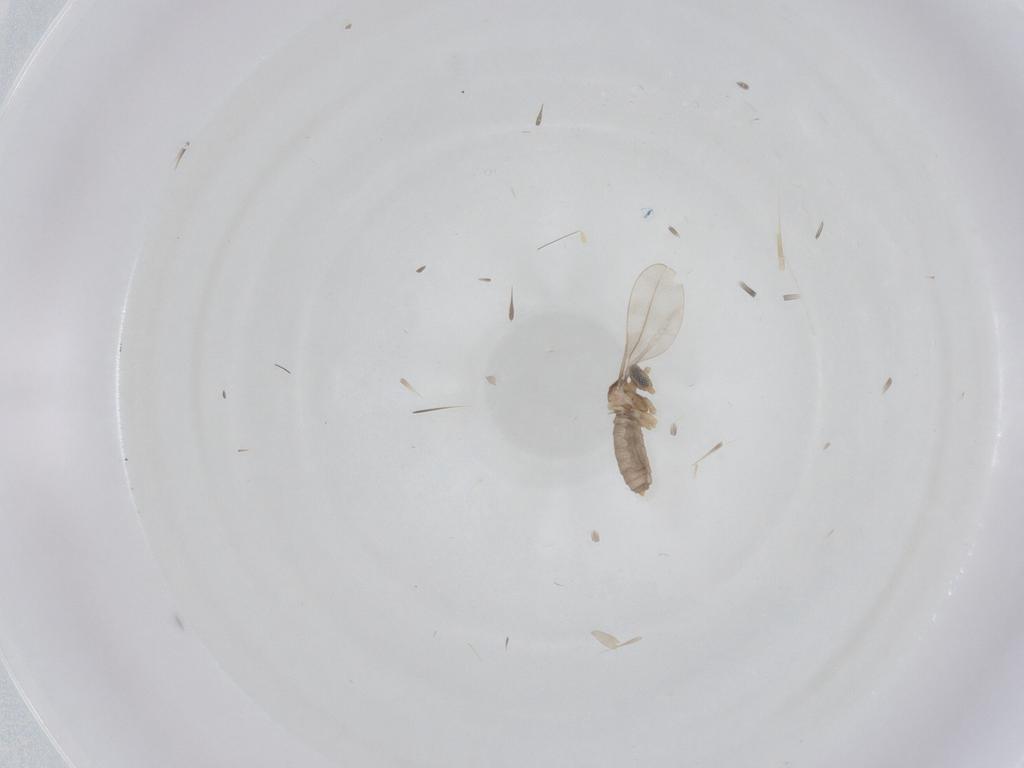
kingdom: Animalia
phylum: Arthropoda
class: Insecta
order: Diptera
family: Cecidomyiidae
